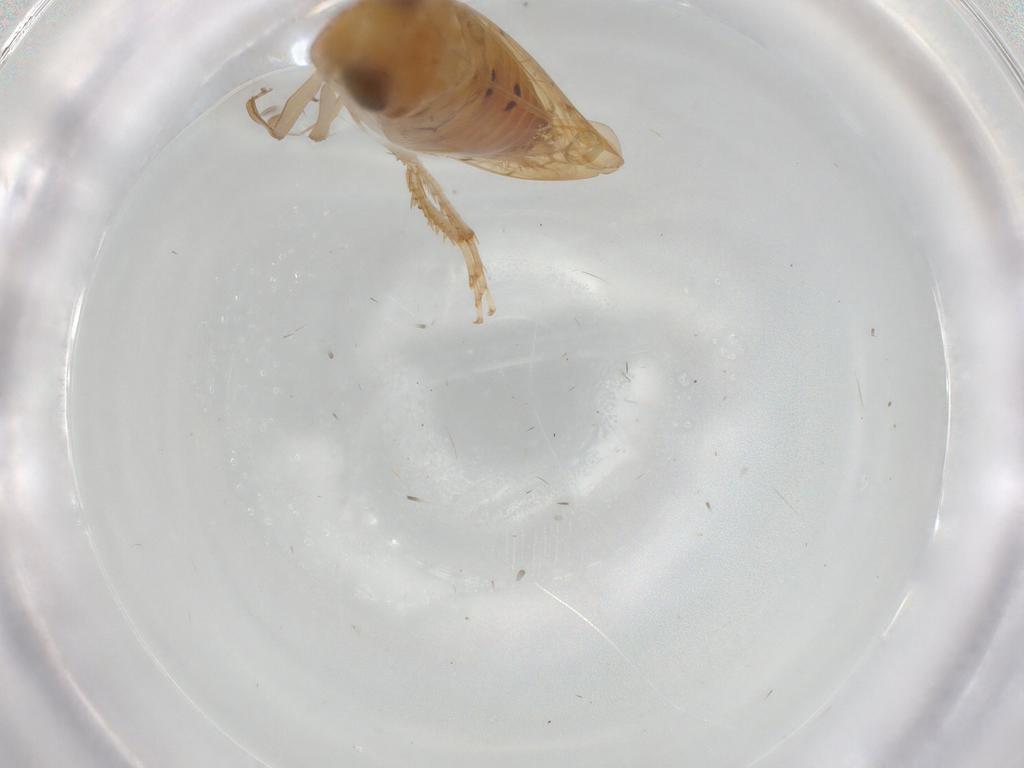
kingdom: Animalia
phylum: Arthropoda
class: Insecta
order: Hemiptera
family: Cicadellidae
